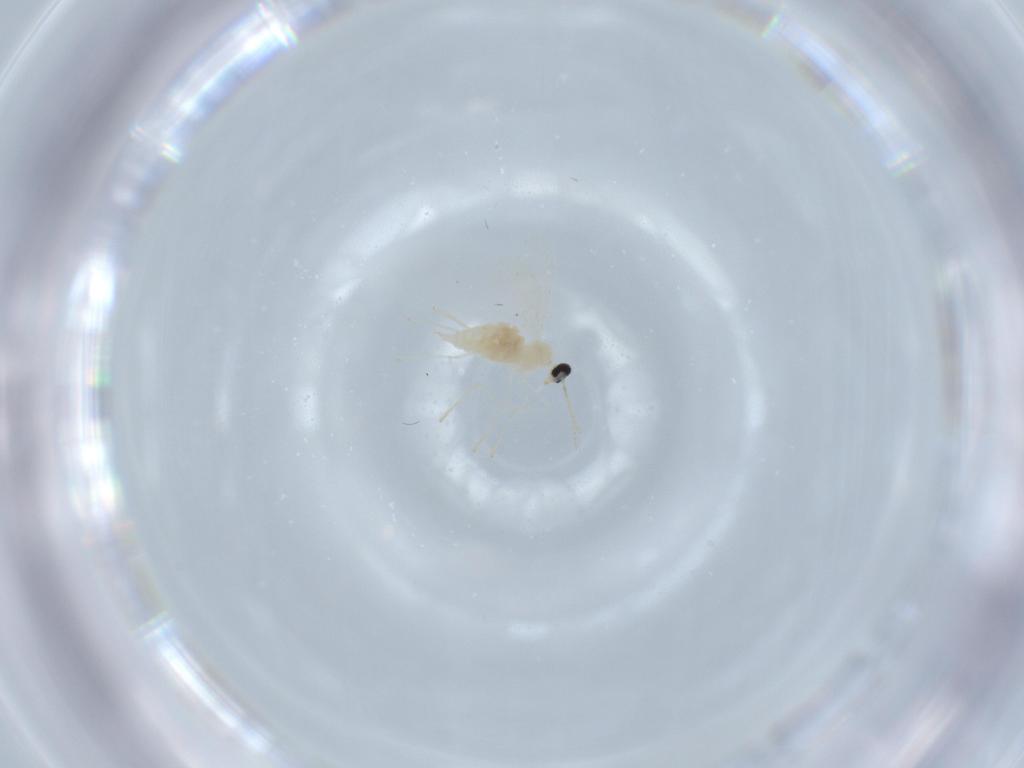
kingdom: Animalia
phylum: Arthropoda
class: Insecta
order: Diptera
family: Cecidomyiidae
